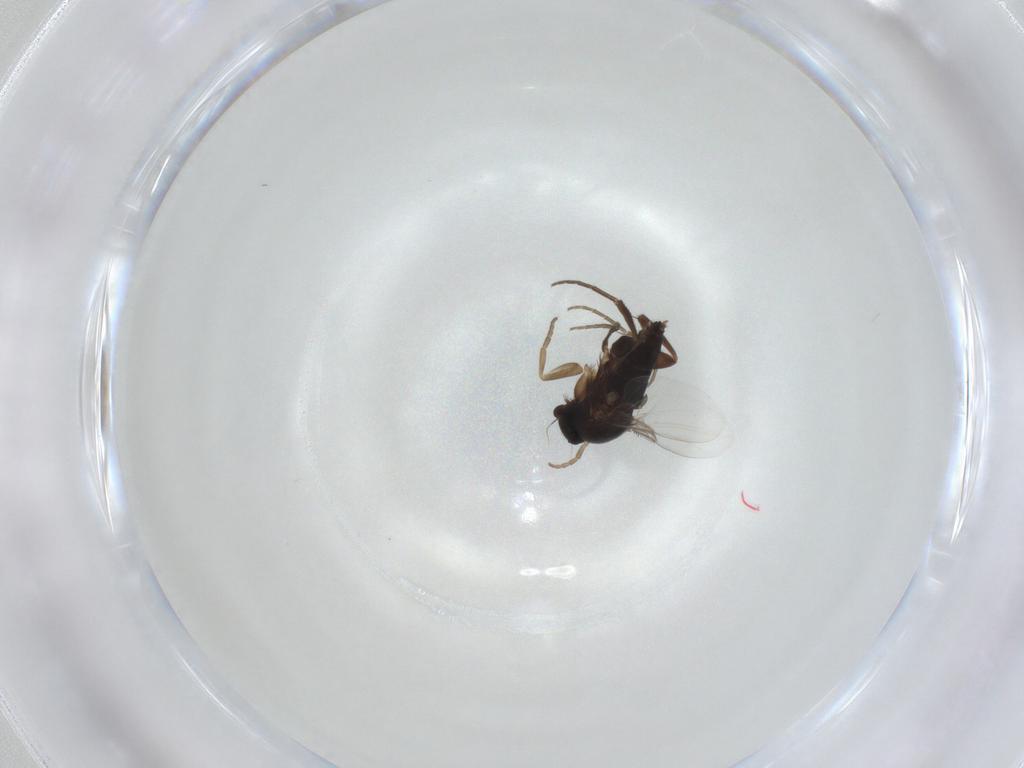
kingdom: Animalia
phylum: Arthropoda
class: Insecta
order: Diptera
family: Phoridae
